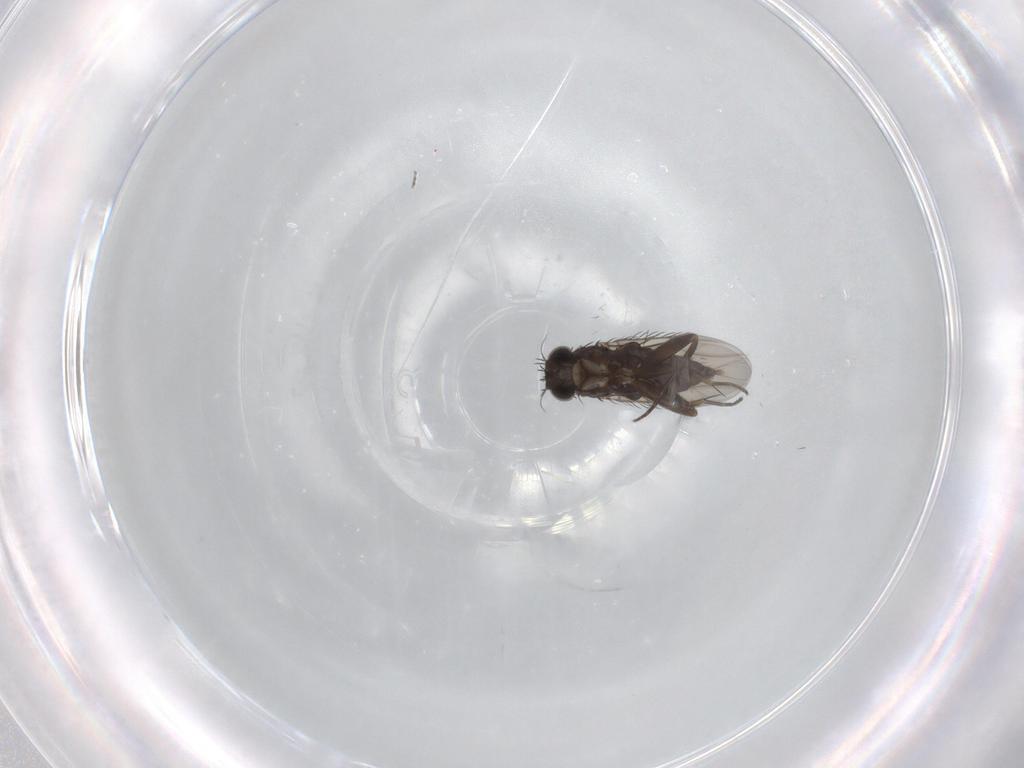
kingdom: Animalia
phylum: Arthropoda
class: Insecta
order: Diptera
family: Phoridae
